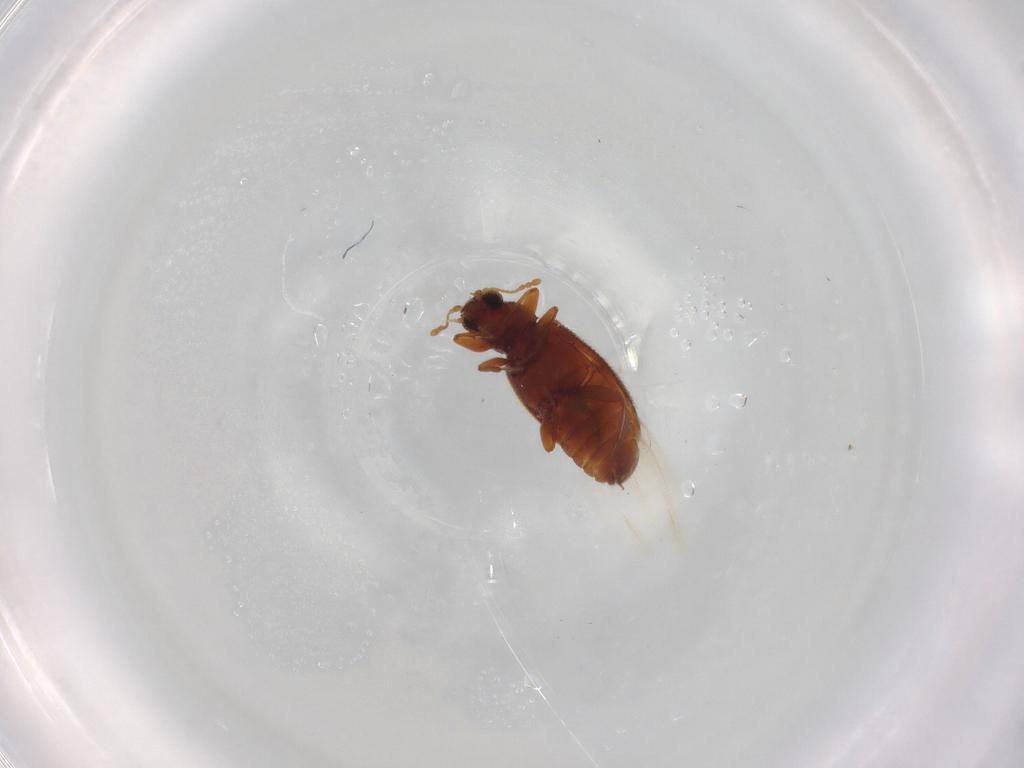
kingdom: Animalia
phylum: Arthropoda
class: Insecta
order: Coleoptera
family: Latridiidae
